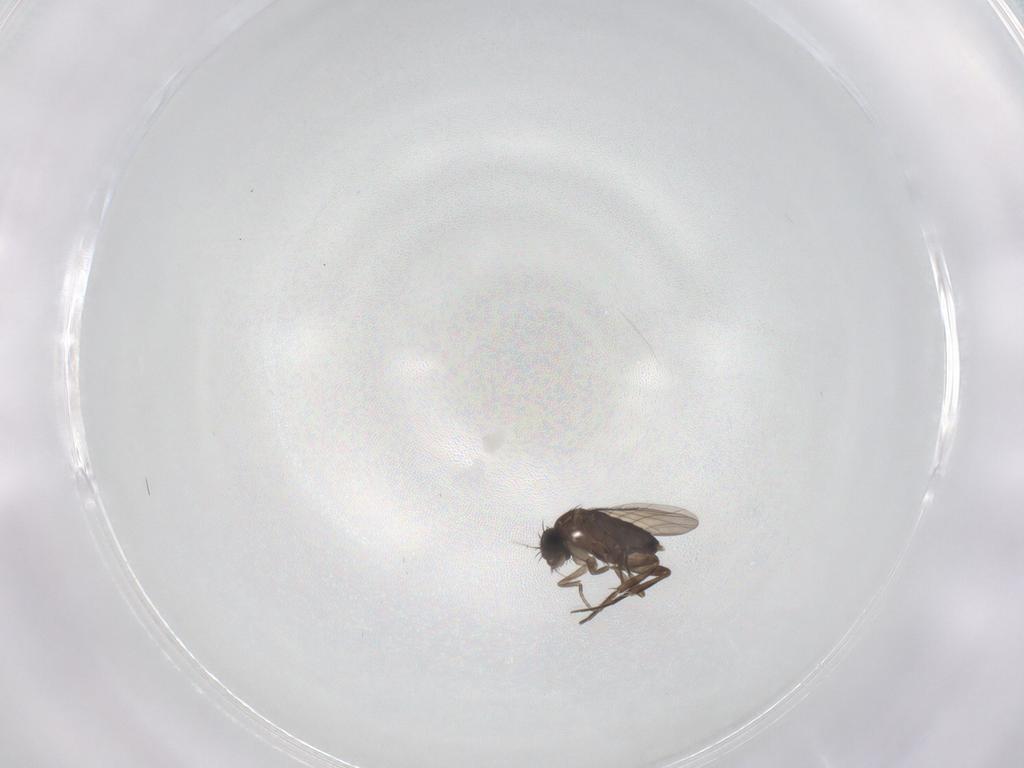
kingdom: Animalia
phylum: Arthropoda
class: Insecta
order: Diptera
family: Phoridae
